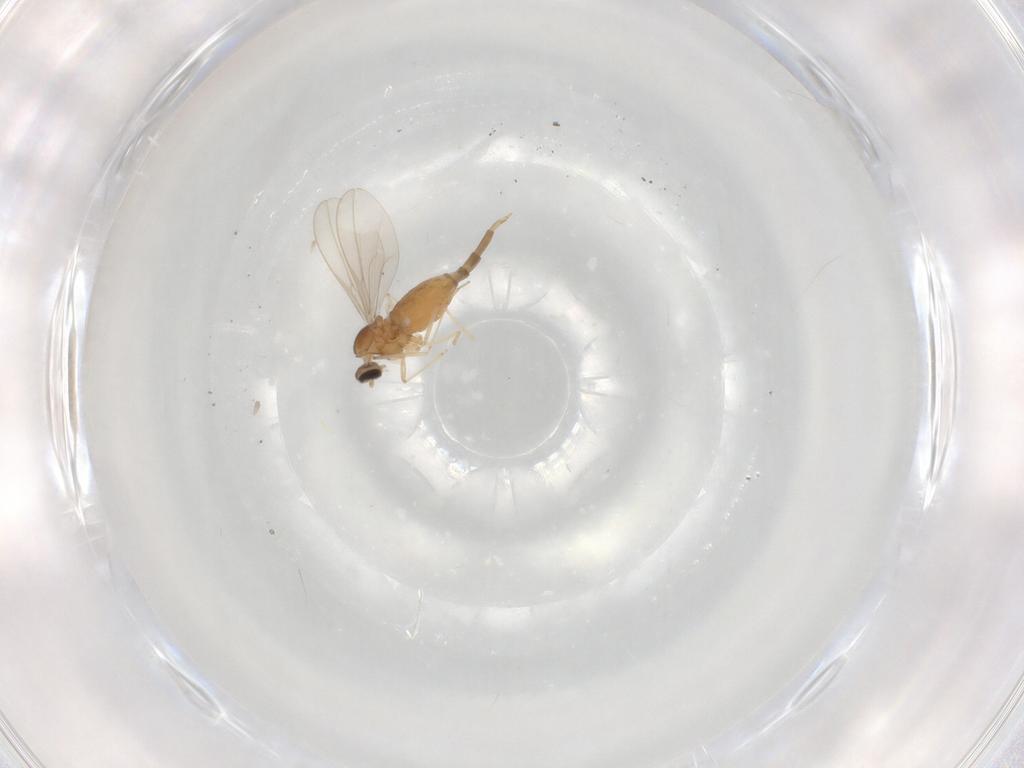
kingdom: Animalia
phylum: Arthropoda
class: Insecta
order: Diptera
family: Cecidomyiidae
